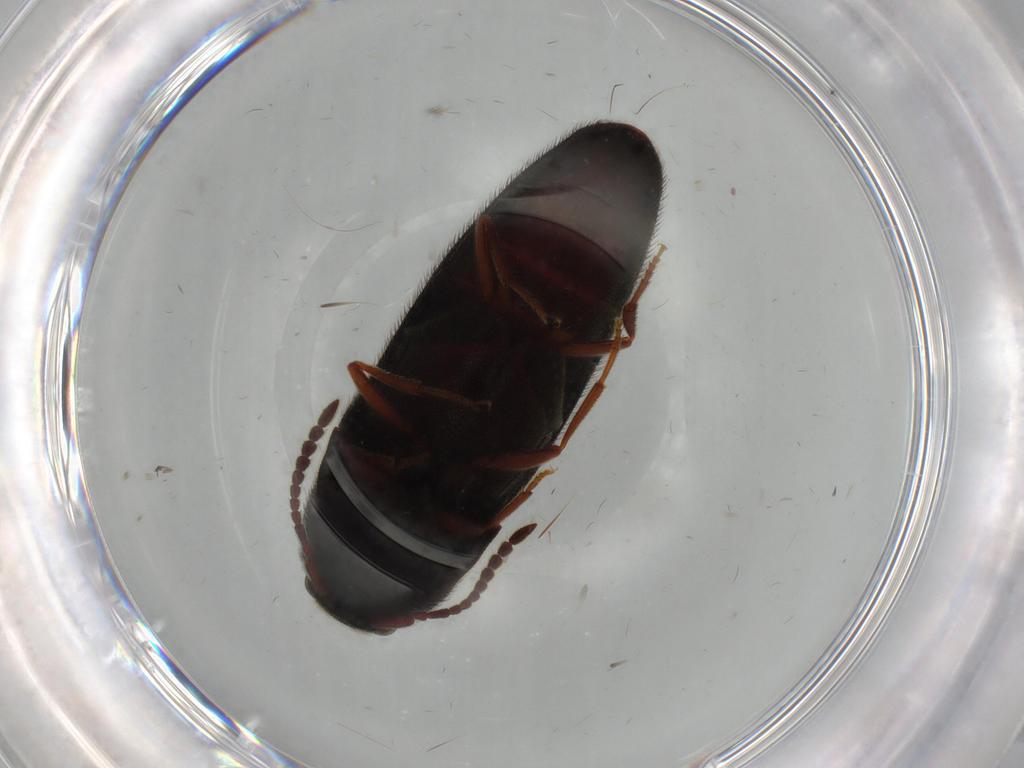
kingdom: Animalia
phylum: Arthropoda
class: Insecta
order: Coleoptera
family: Eucnemidae
